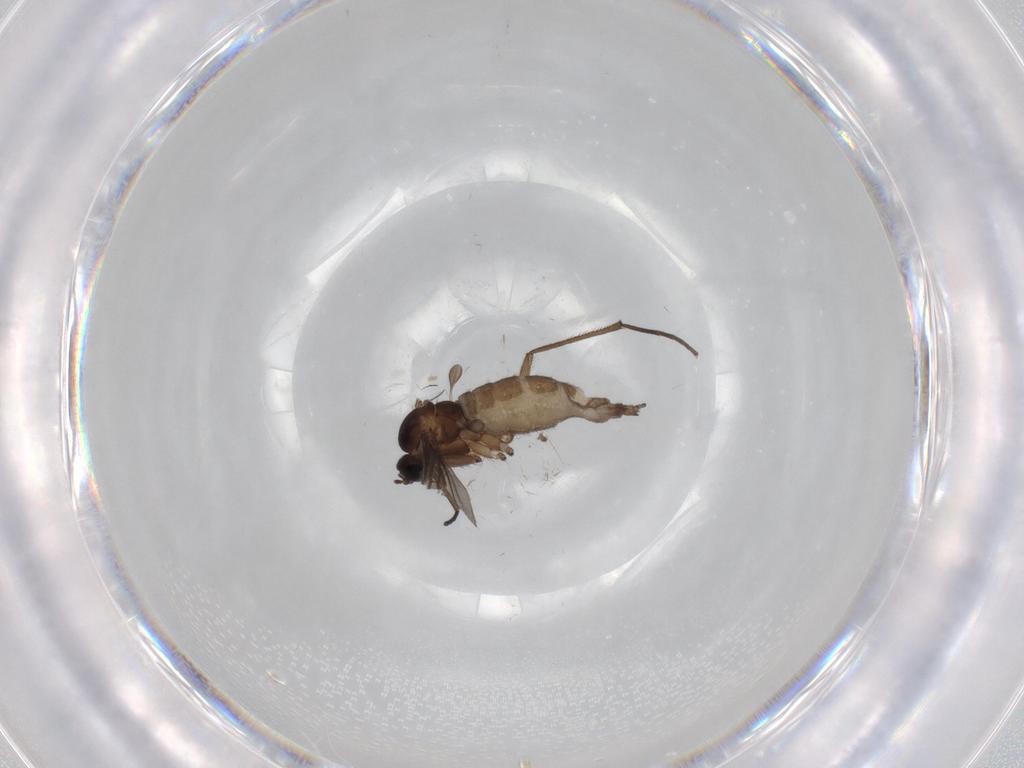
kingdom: Animalia
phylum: Arthropoda
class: Insecta
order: Diptera
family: Sciaridae
